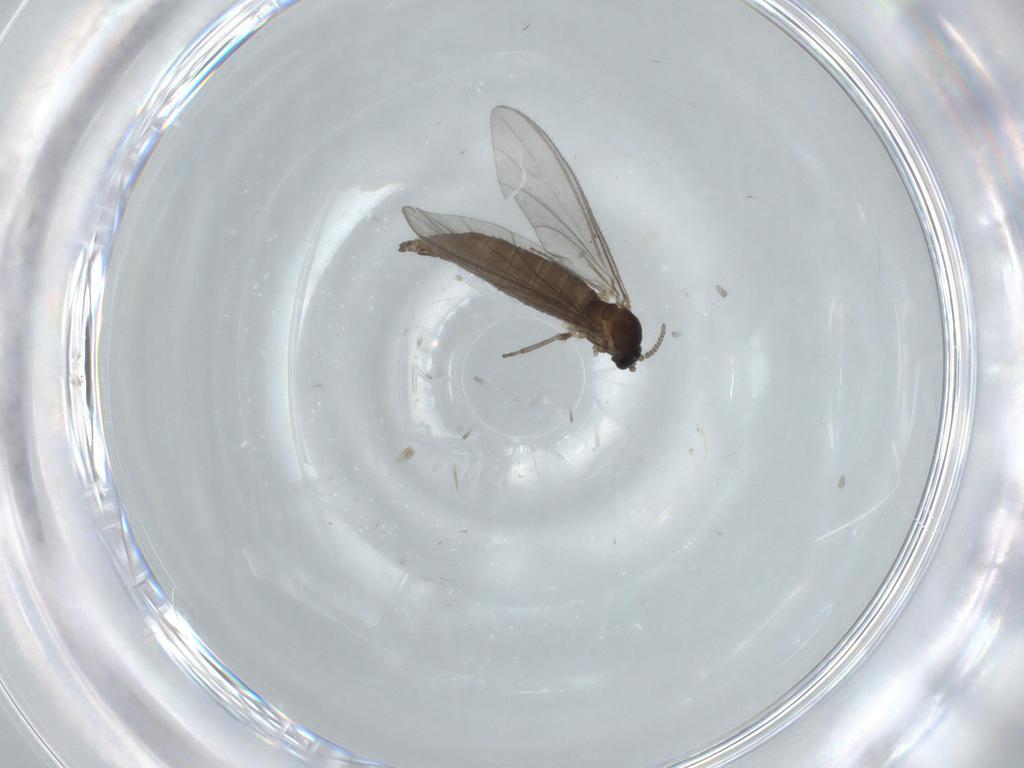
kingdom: Animalia
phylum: Arthropoda
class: Insecta
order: Diptera
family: Sciaridae
